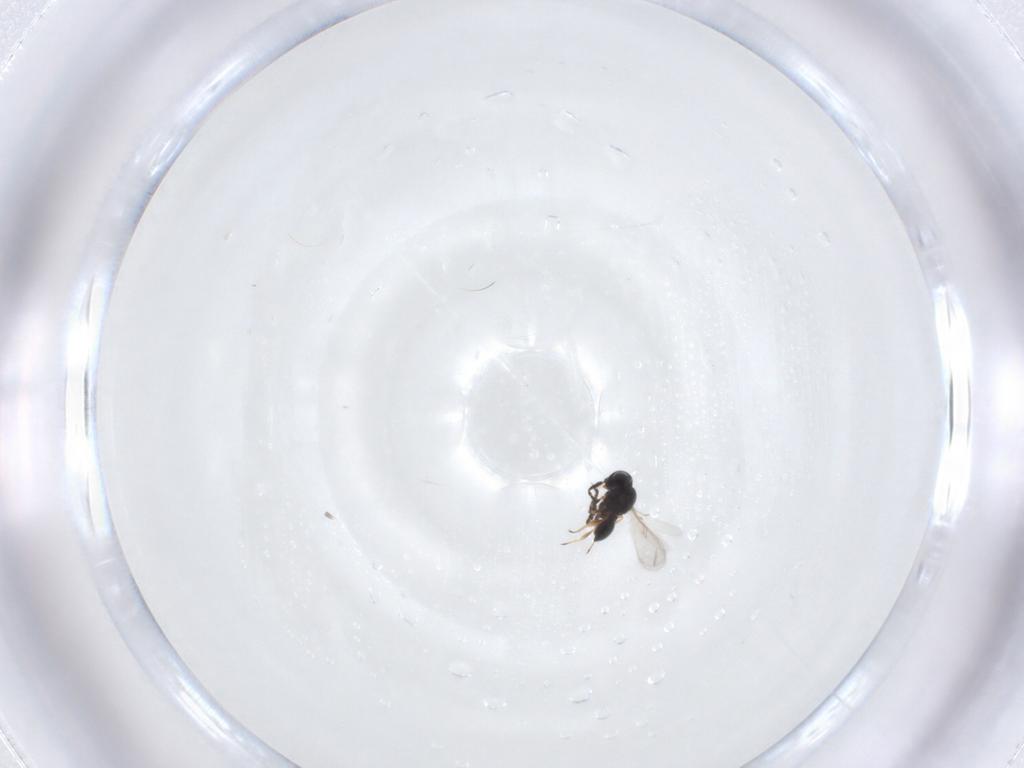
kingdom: Animalia
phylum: Arthropoda
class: Insecta
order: Hymenoptera
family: Scelionidae
